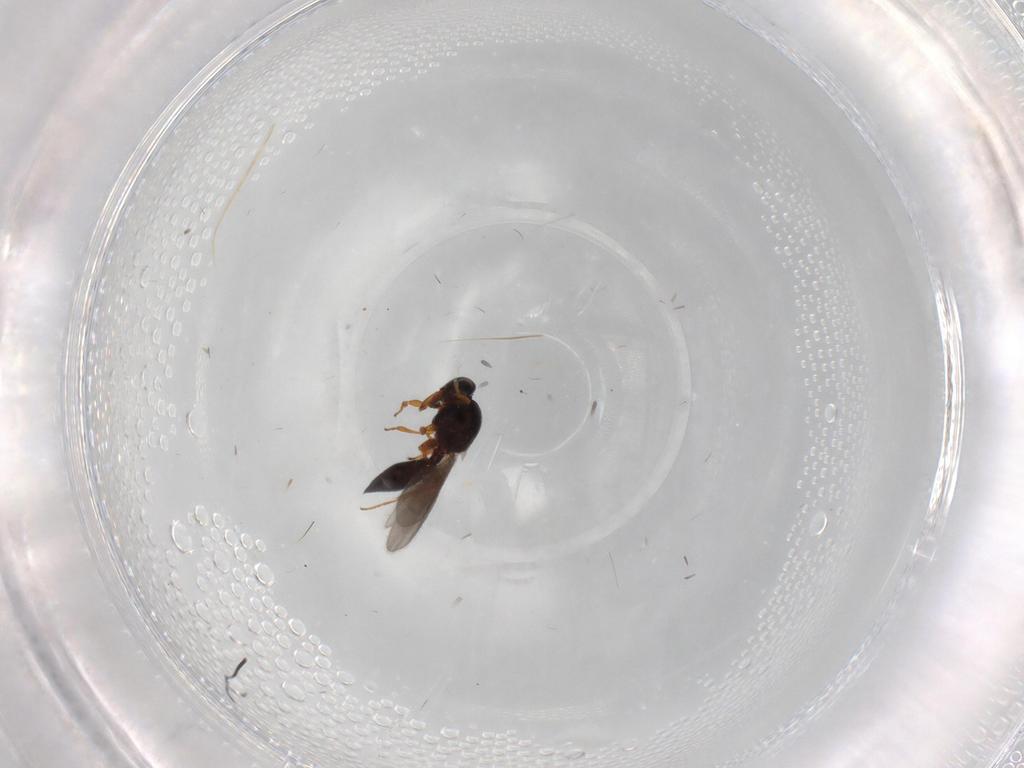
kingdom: Animalia
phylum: Arthropoda
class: Insecta
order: Hymenoptera
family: Platygastridae
